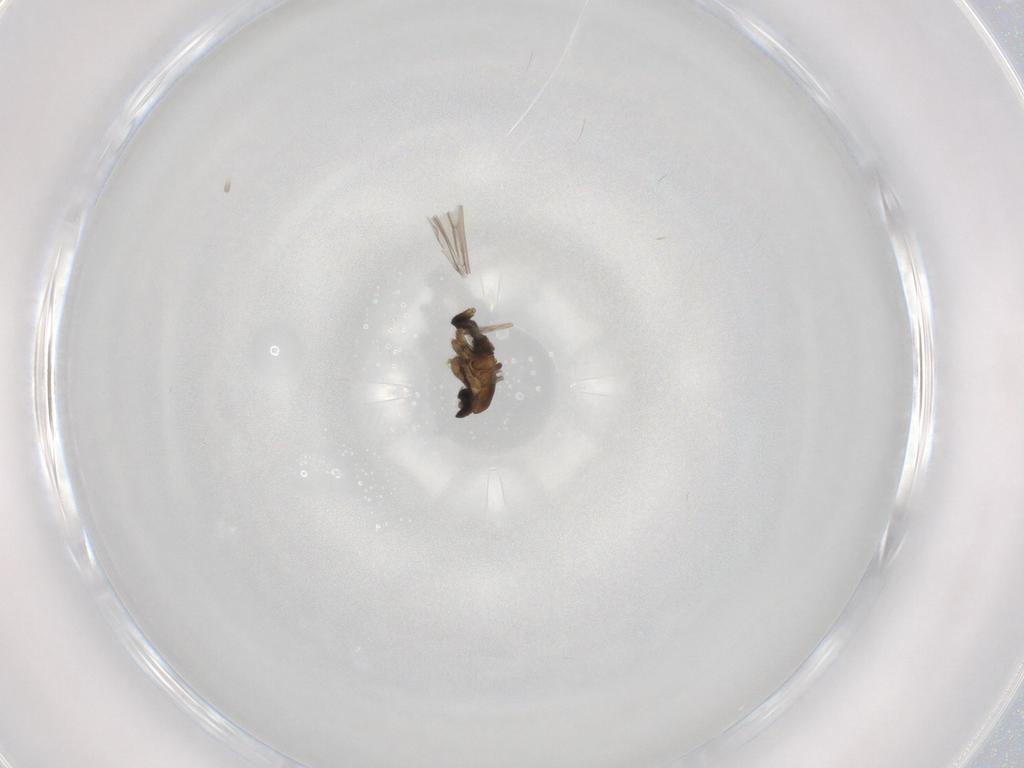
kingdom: Animalia
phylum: Arthropoda
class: Insecta
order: Diptera
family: Cecidomyiidae
